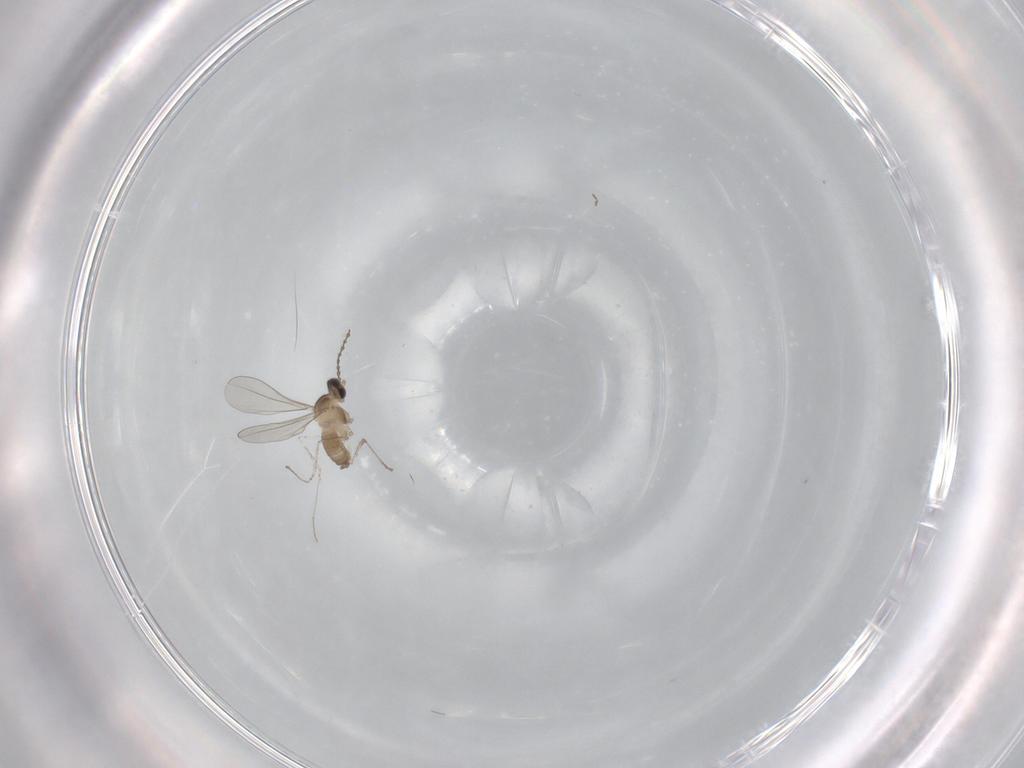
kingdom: Animalia
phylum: Arthropoda
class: Insecta
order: Diptera
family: Cecidomyiidae
